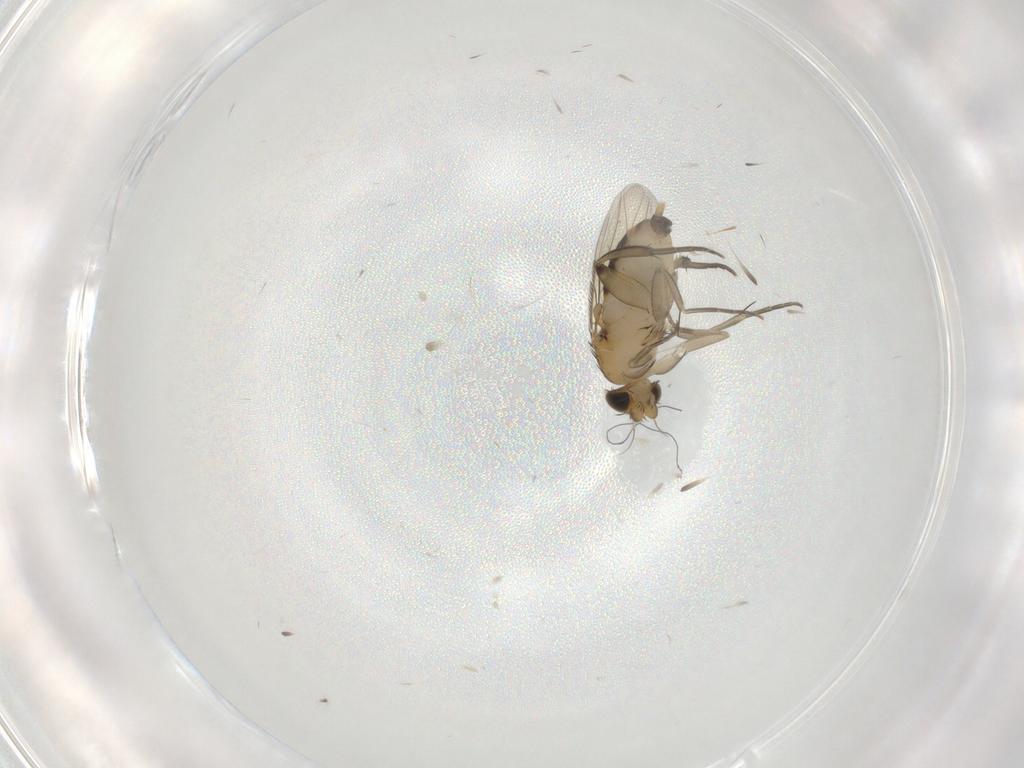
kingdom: Animalia
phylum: Arthropoda
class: Insecta
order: Diptera
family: Phoridae
